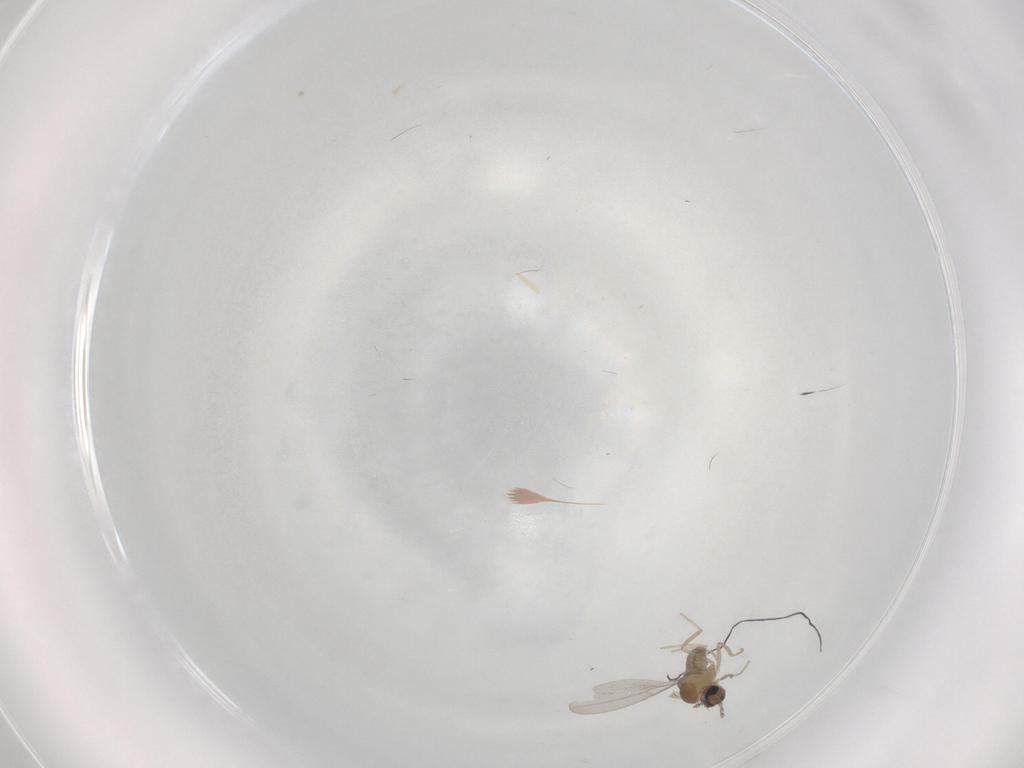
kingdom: Animalia
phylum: Arthropoda
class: Insecta
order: Diptera
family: Cecidomyiidae
